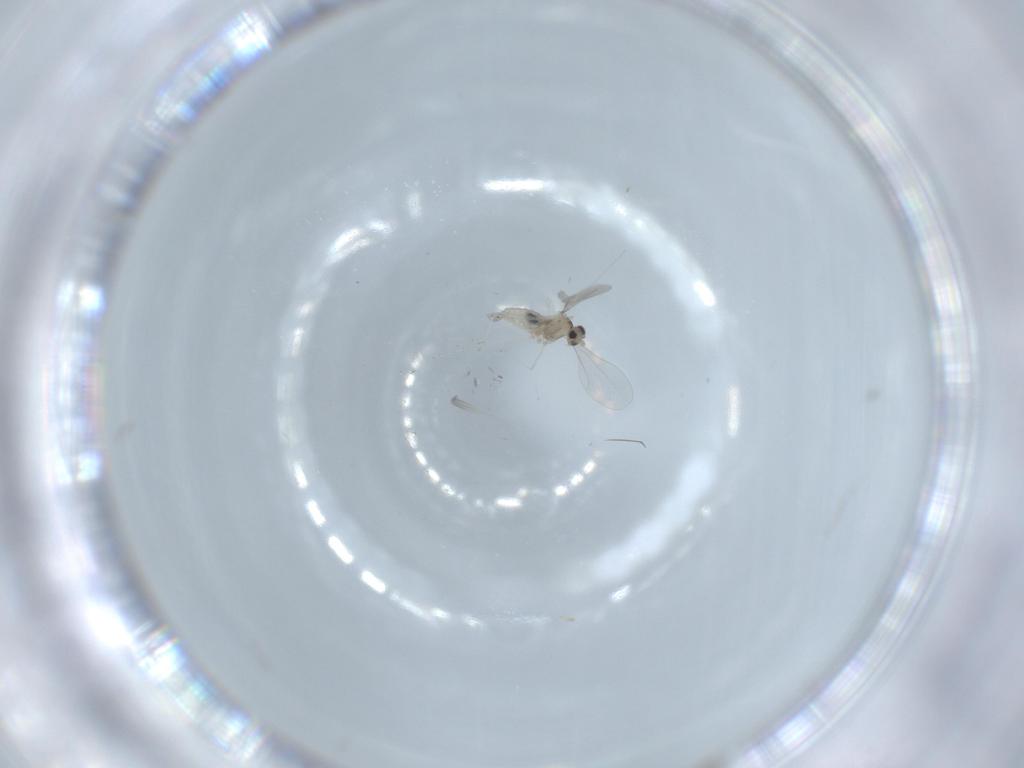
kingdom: Animalia
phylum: Arthropoda
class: Insecta
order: Diptera
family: Cecidomyiidae
